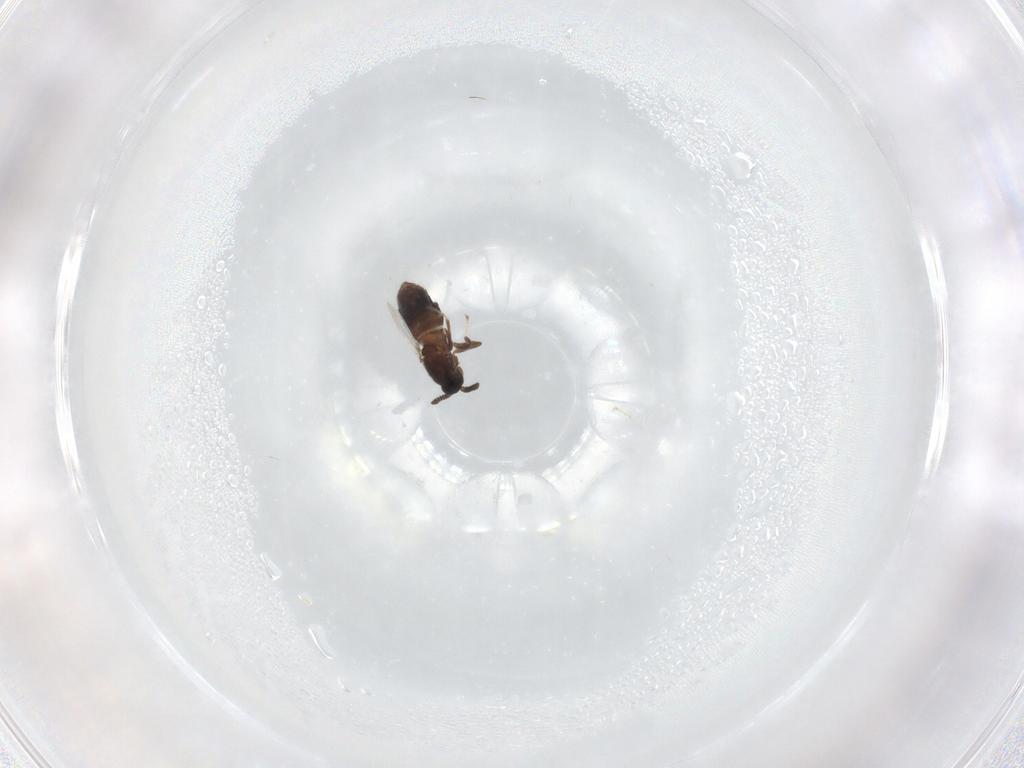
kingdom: Animalia
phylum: Arthropoda
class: Insecta
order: Diptera
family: Scatopsidae
